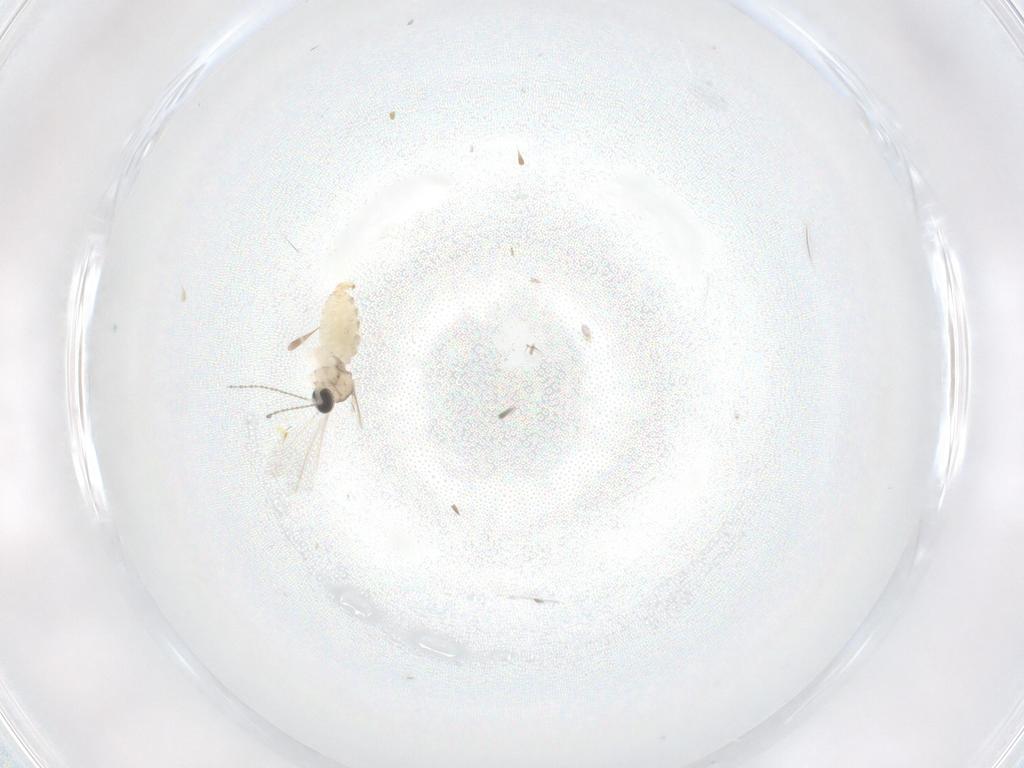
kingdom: Animalia
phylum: Arthropoda
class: Insecta
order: Diptera
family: Cecidomyiidae
